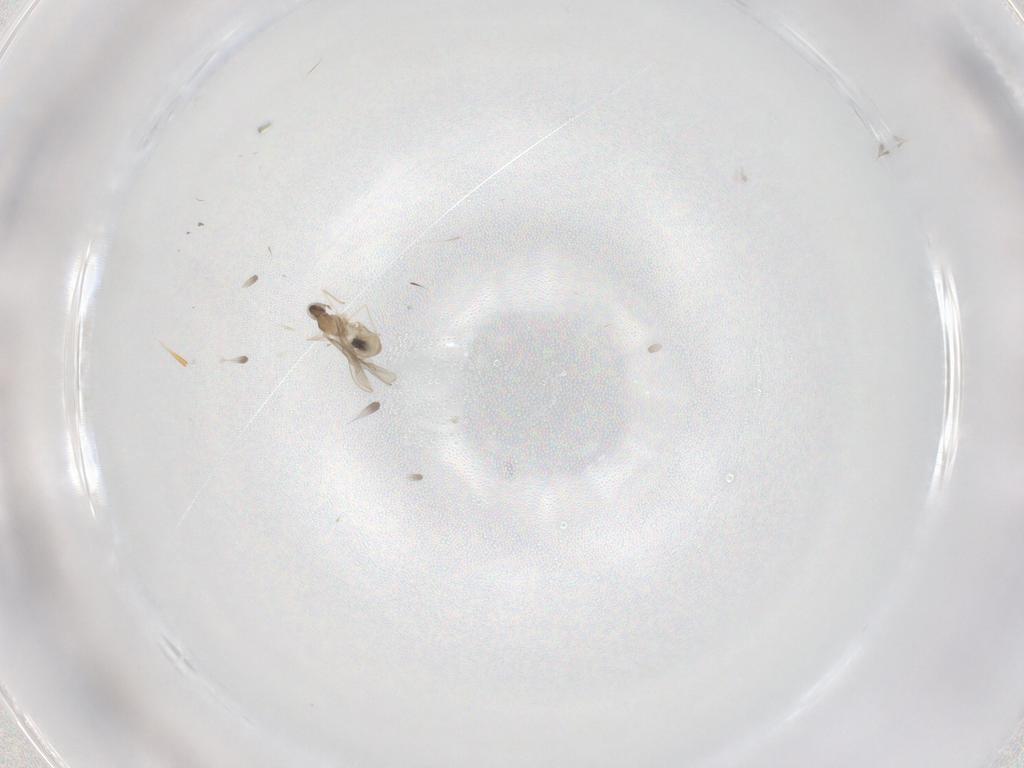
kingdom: Animalia
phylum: Arthropoda
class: Insecta
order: Diptera
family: Cecidomyiidae
